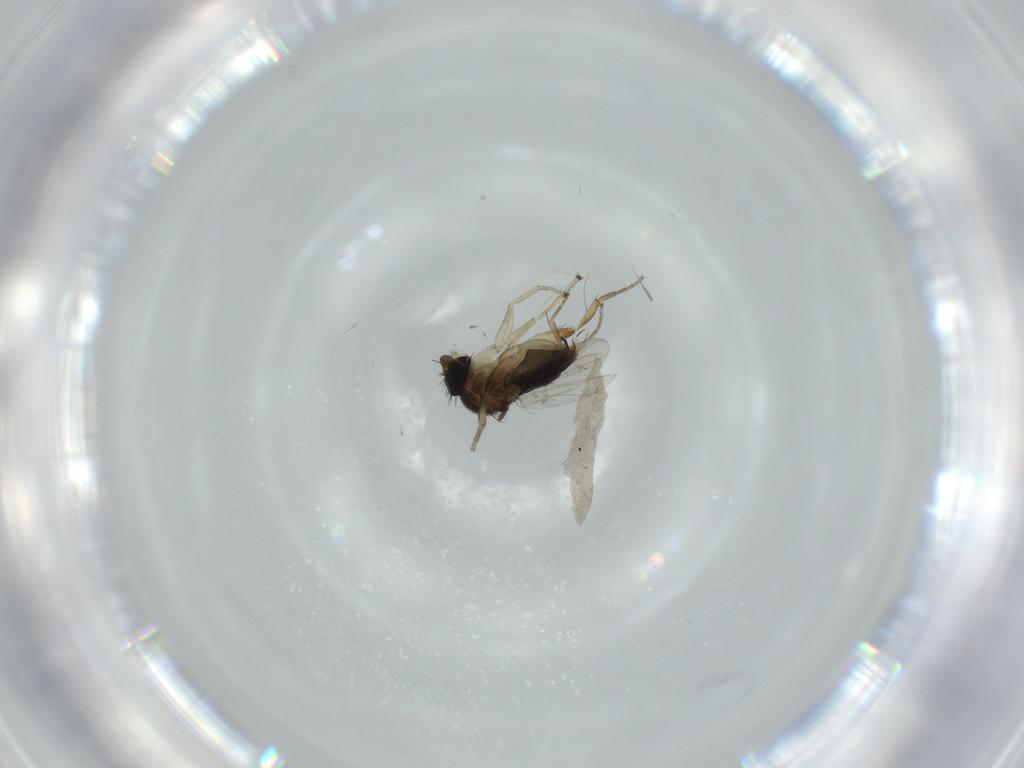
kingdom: Animalia
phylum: Arthropoda
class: Insecta
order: Diptera
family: Phoridae
